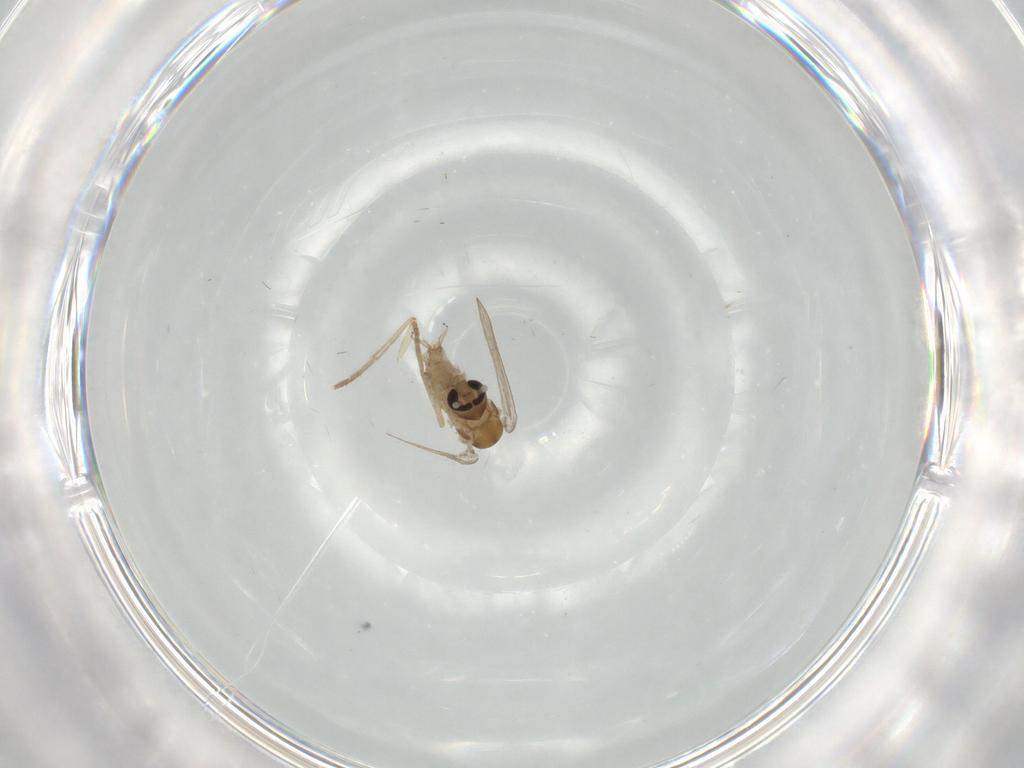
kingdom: Animalia
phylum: Arthropoda
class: Insecta
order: Diptera
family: Psychodidae
